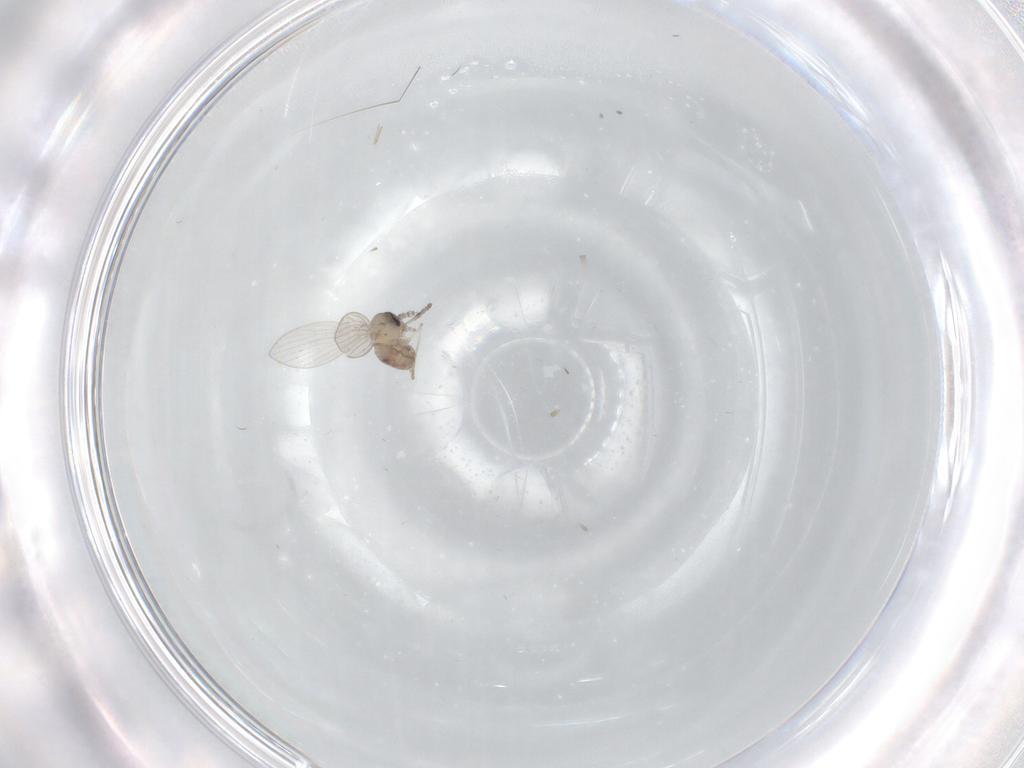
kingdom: Animalia
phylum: Arthropoda
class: Insecta
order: Diptera
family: Psychodidae
